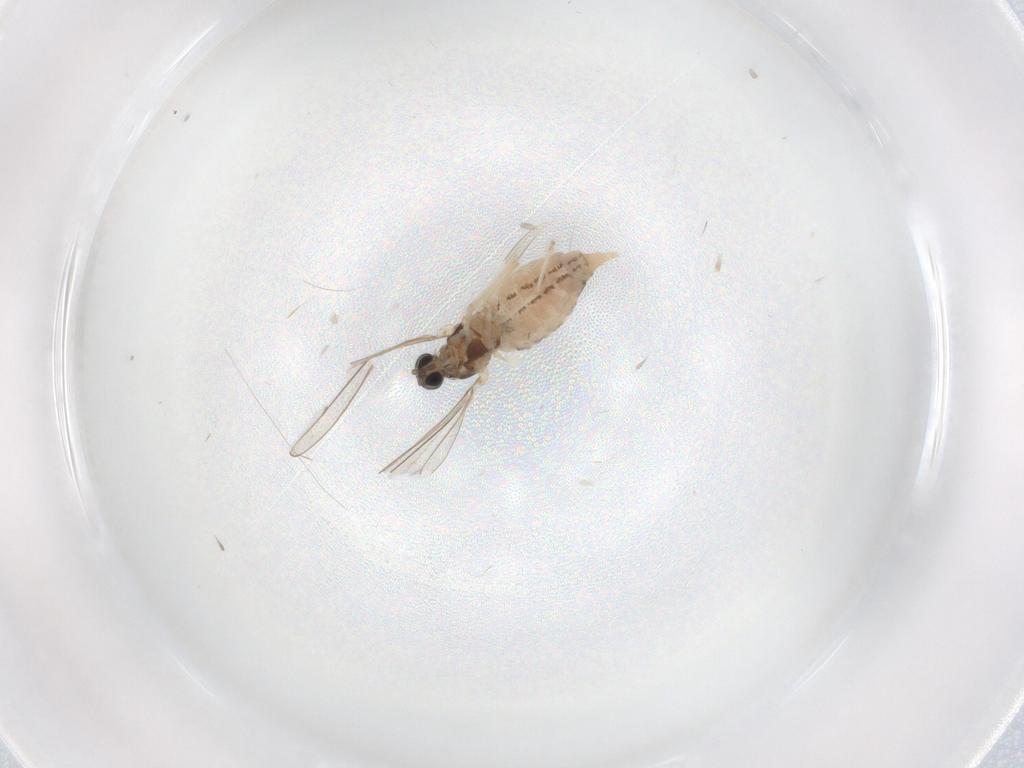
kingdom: Animalia
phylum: Arthropoda
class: Insecta
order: Diptera
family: Cecidomyiidae
